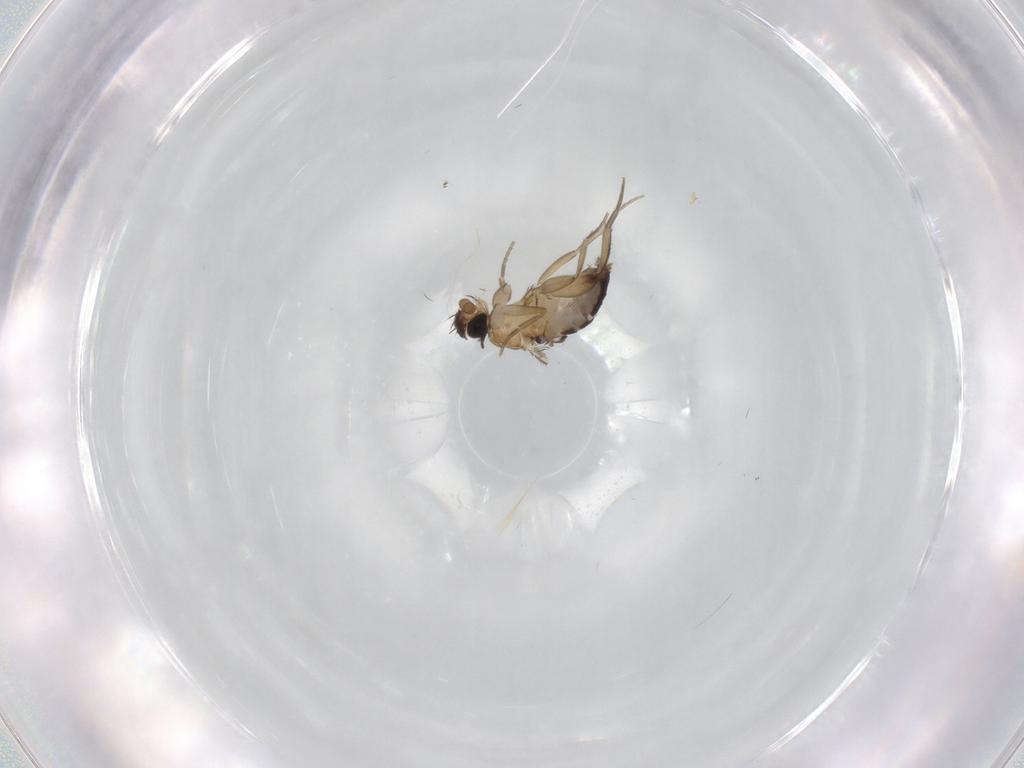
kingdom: Animalia
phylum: Arthropoda
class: Insecta
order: Diptera
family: Phoridae
